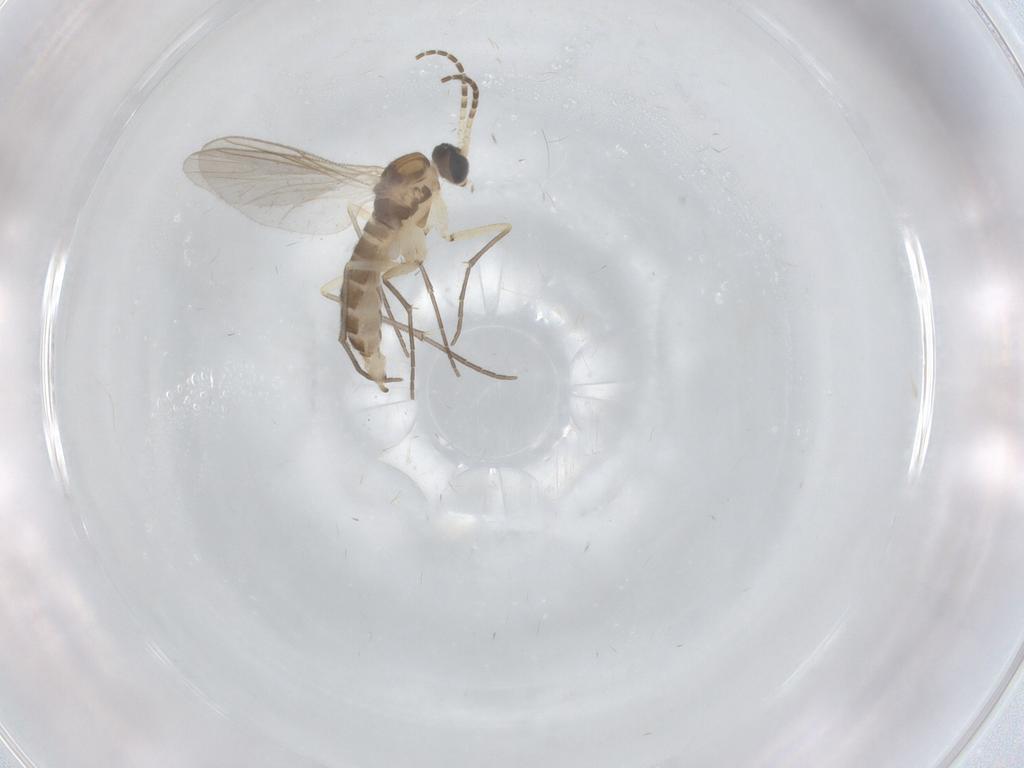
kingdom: Animalia
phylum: Arthropoda
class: Insecta
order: Diptera
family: Sciaridae
